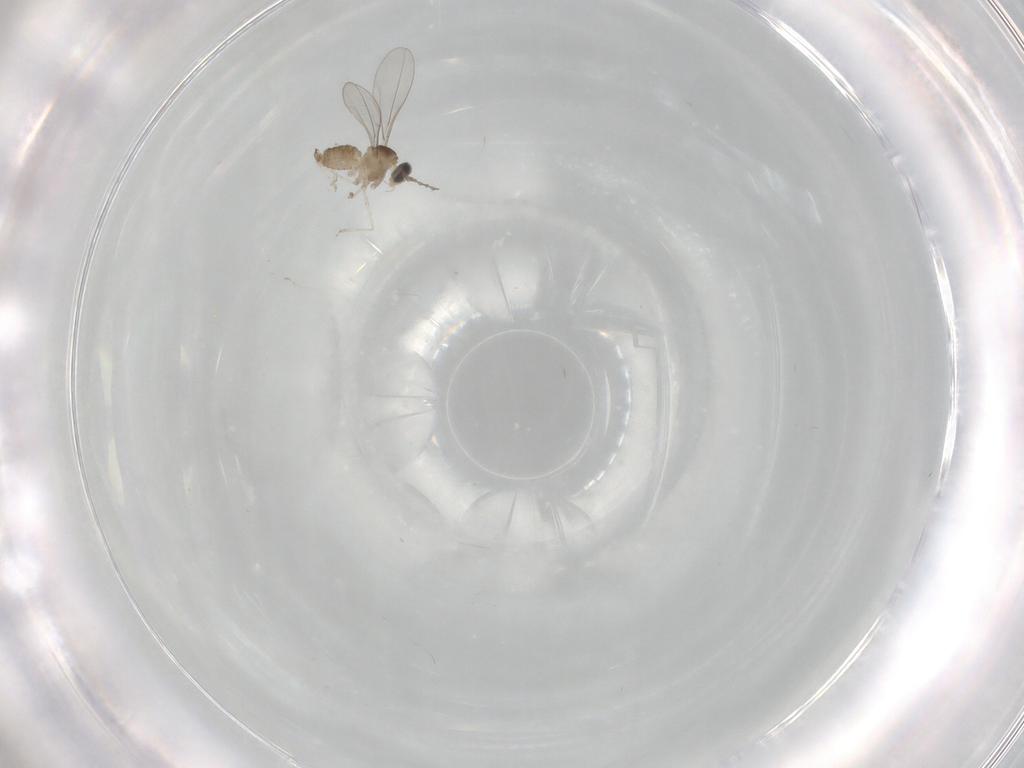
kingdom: Animalia
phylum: Arthropoda
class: Insecta
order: Diptera
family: Cecidomyiidae
